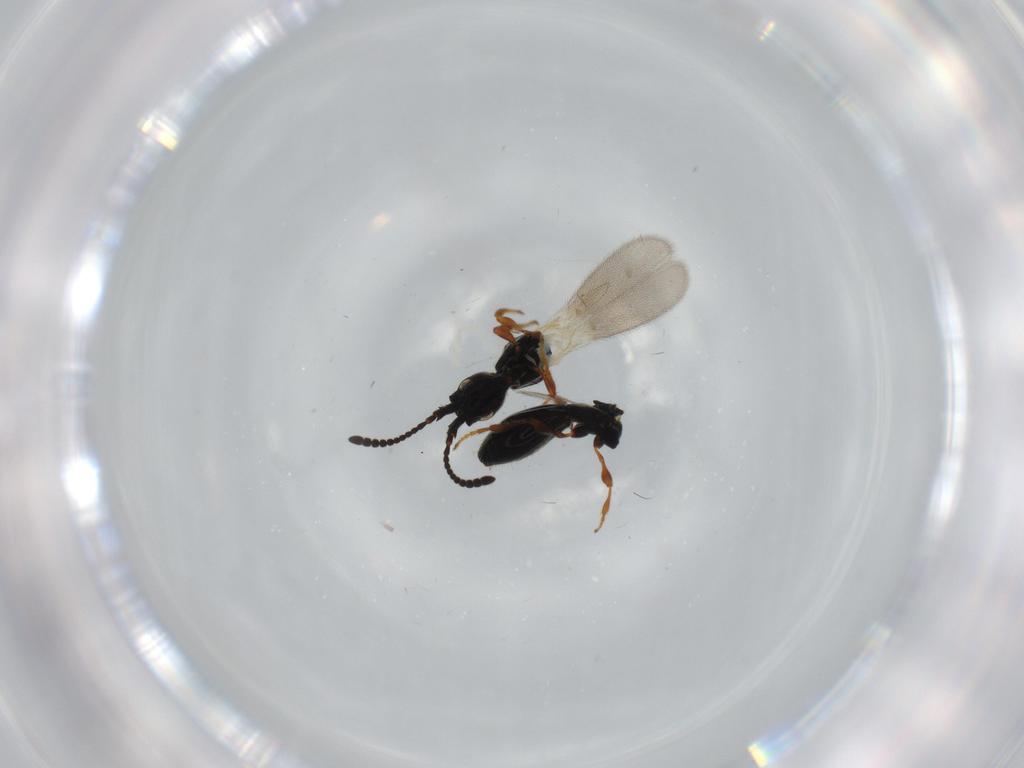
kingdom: Animalia
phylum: Arthropoda
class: Insecta
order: Hymenoptera
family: Diapriidae
